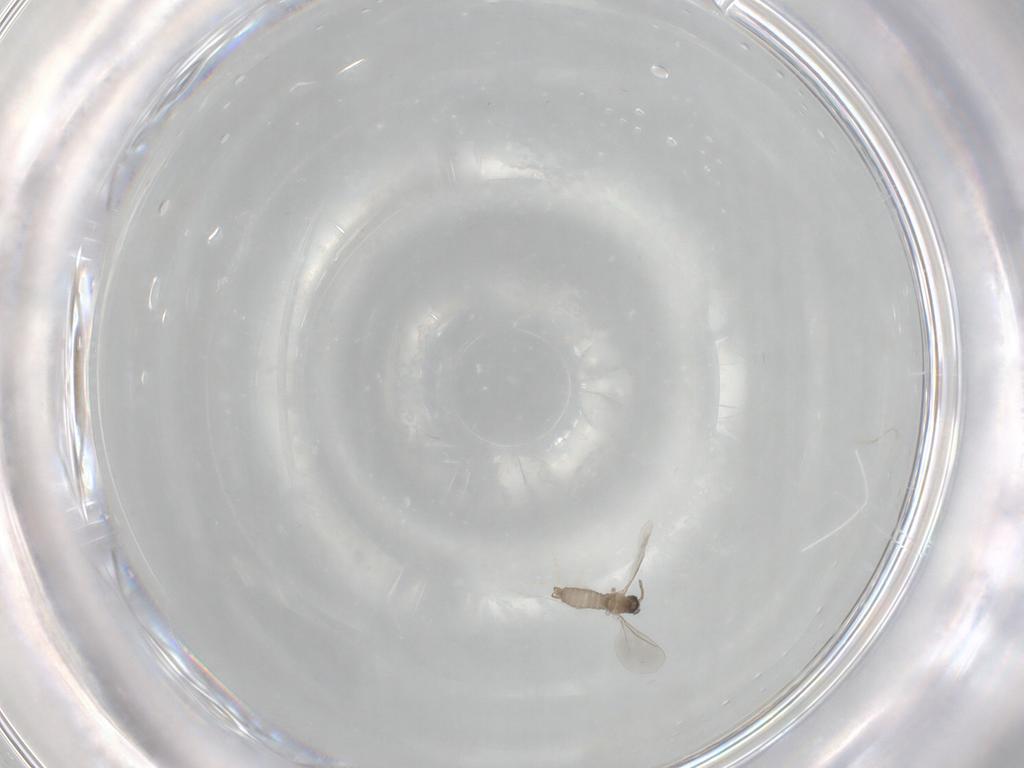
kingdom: Animalia
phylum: Arthropoda
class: Insecta
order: Diptera
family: Cecidomyiidae
